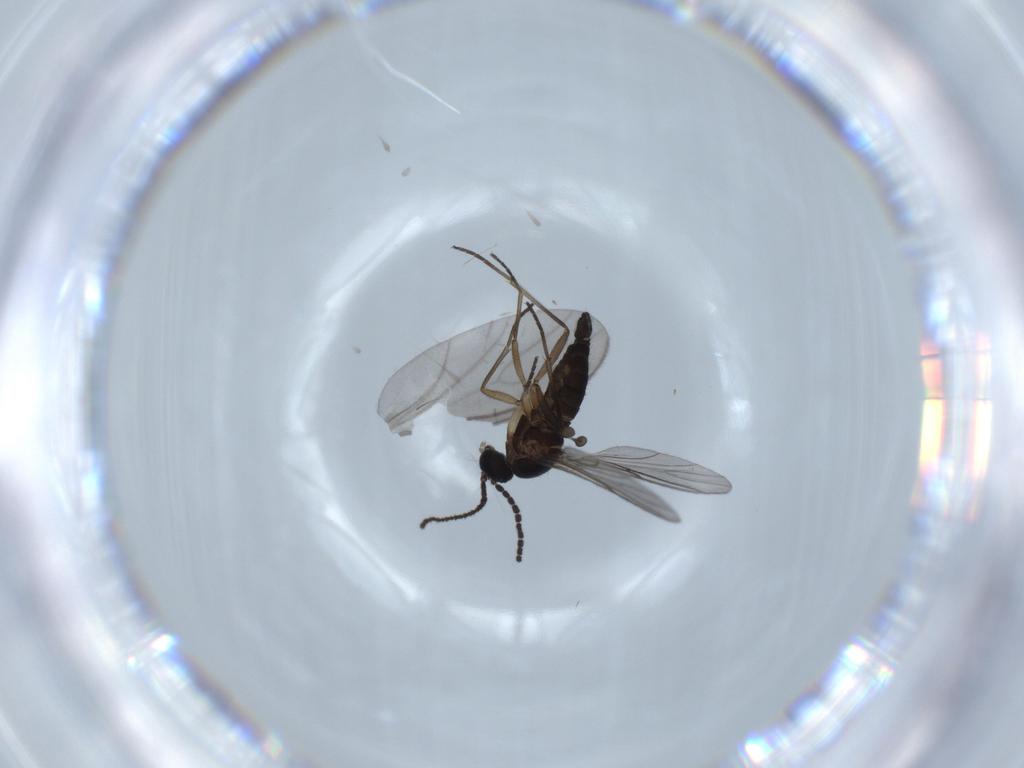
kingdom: Animalia
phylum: Arthropoda
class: Insecta
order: Diptera
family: Sciaridae
